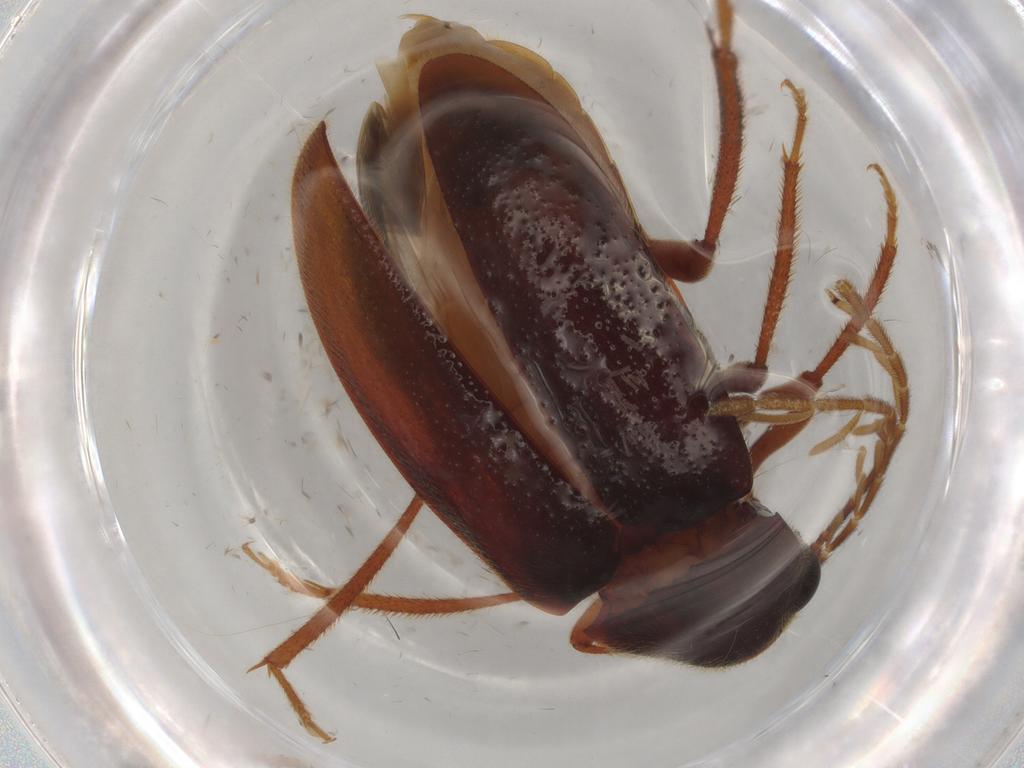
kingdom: Animalia
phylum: Arthropoda
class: Insecta
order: Coleoptera
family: Ptilodactylidae
